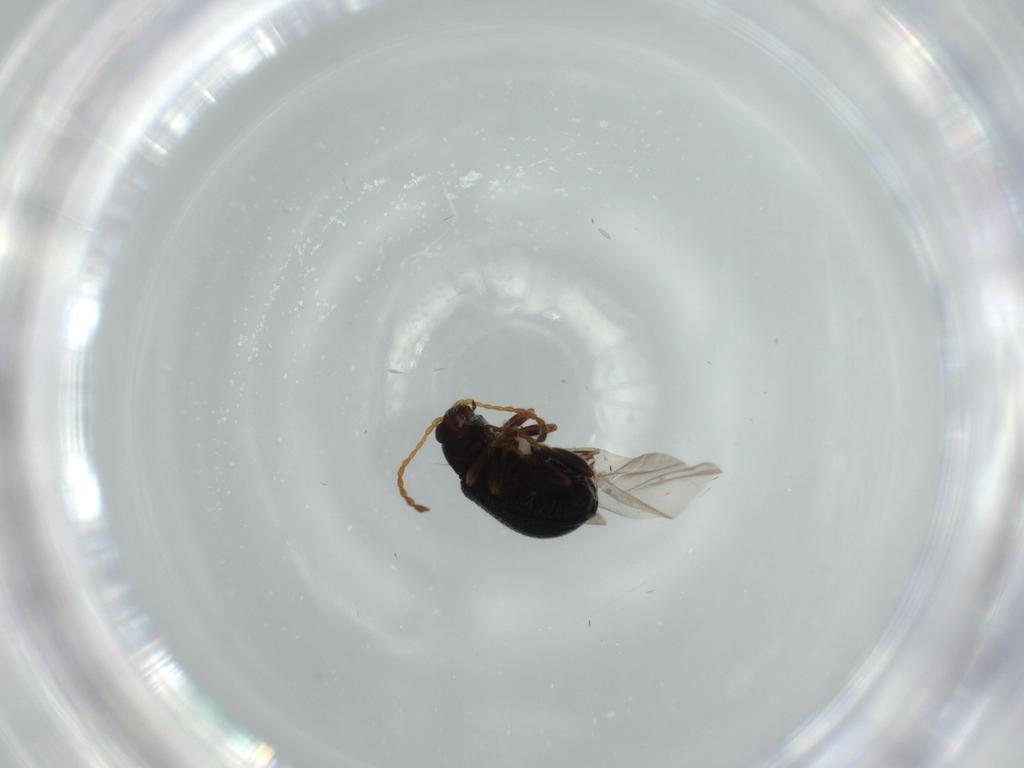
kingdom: Animalia
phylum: Arthropoda
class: Insecta
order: Coleoptera
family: Chrysomelidae
